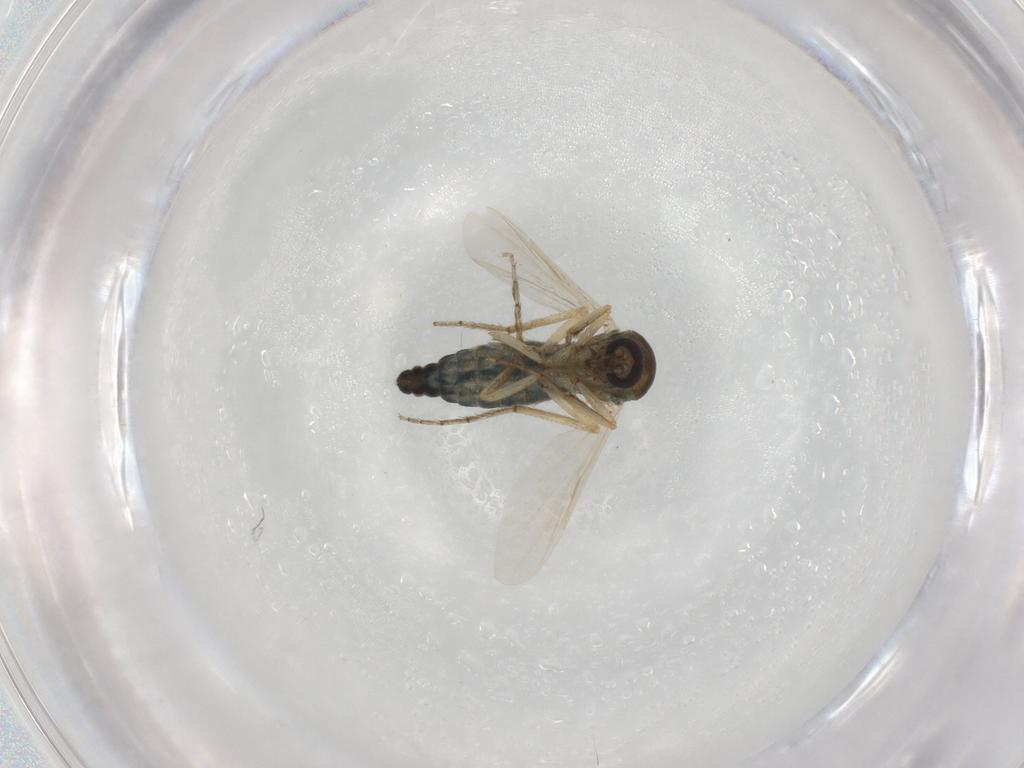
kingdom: Animalia
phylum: Arthropoda
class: Insecta
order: Diptera
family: Ceratopogonidae
